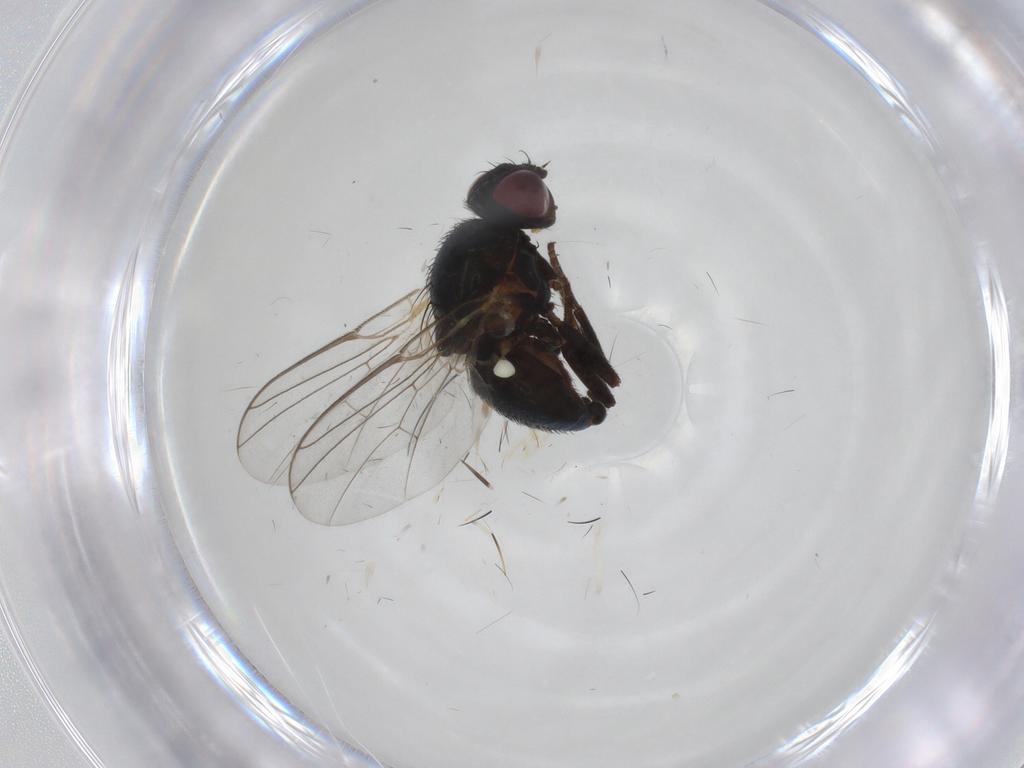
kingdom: Animalia
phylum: Arthropoda
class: Insecta
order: Diptera
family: Agromyzidae
